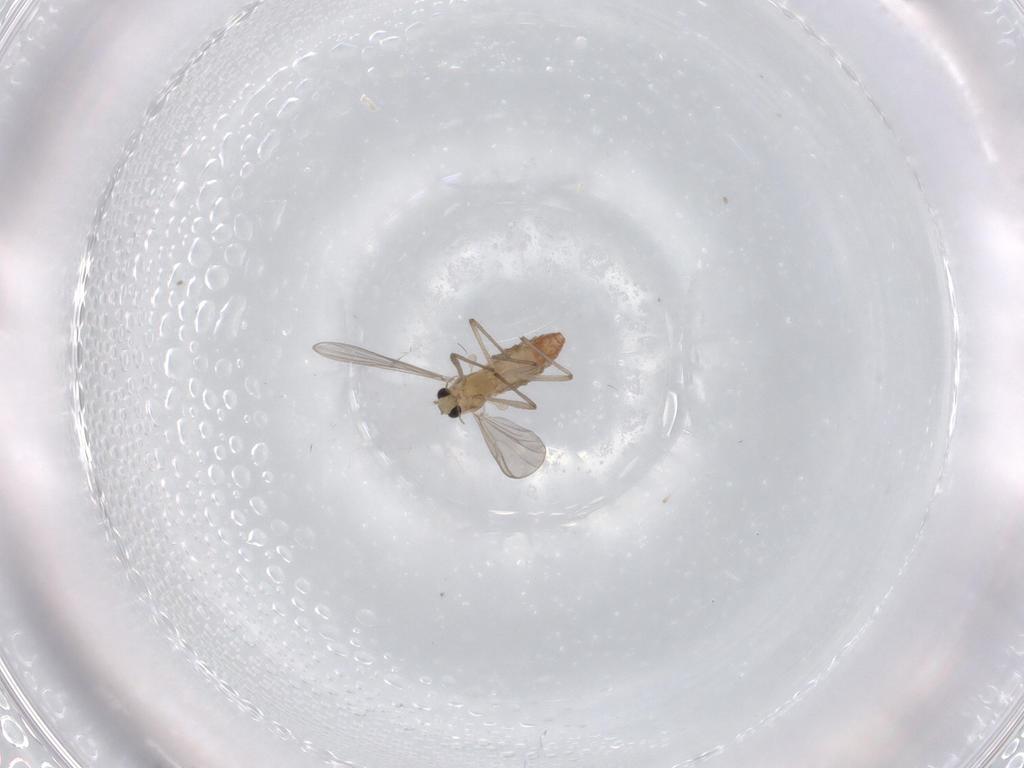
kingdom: Animalia
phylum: Arthropoda
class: Insecta
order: Diptera
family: Chironomidae
